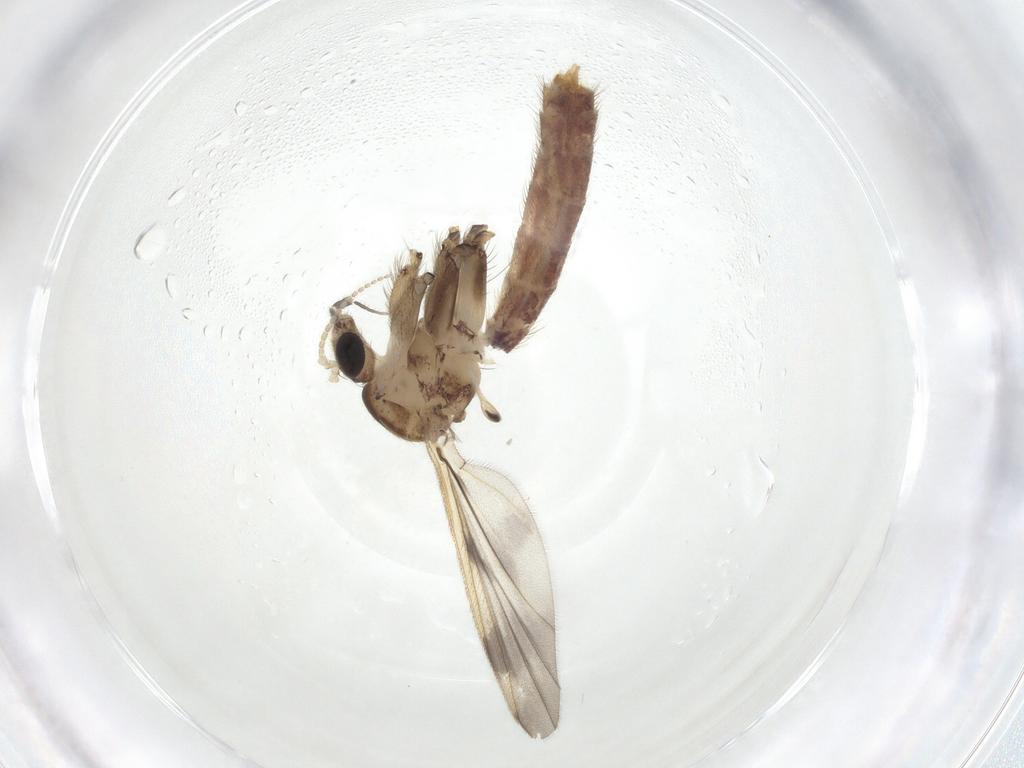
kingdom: Animalia
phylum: Arthropoda
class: Insecta
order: Diptera
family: Mycetophilidae
